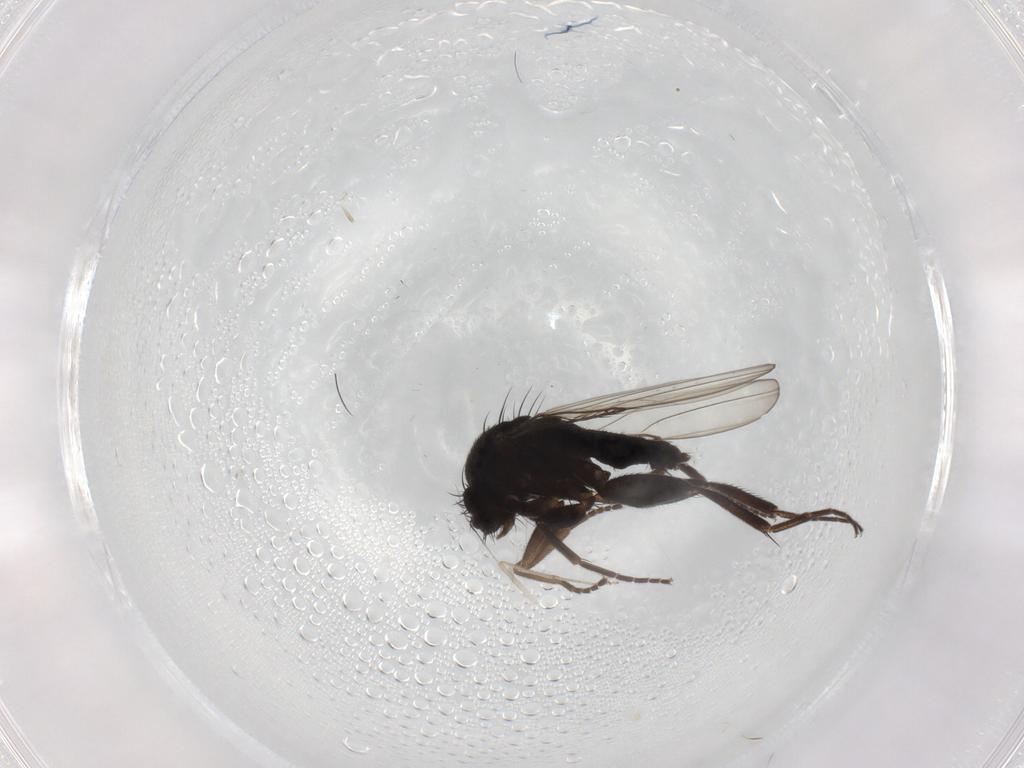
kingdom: Animalia
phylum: Arthropoda
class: Insecta
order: Diptera
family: Phoridae
